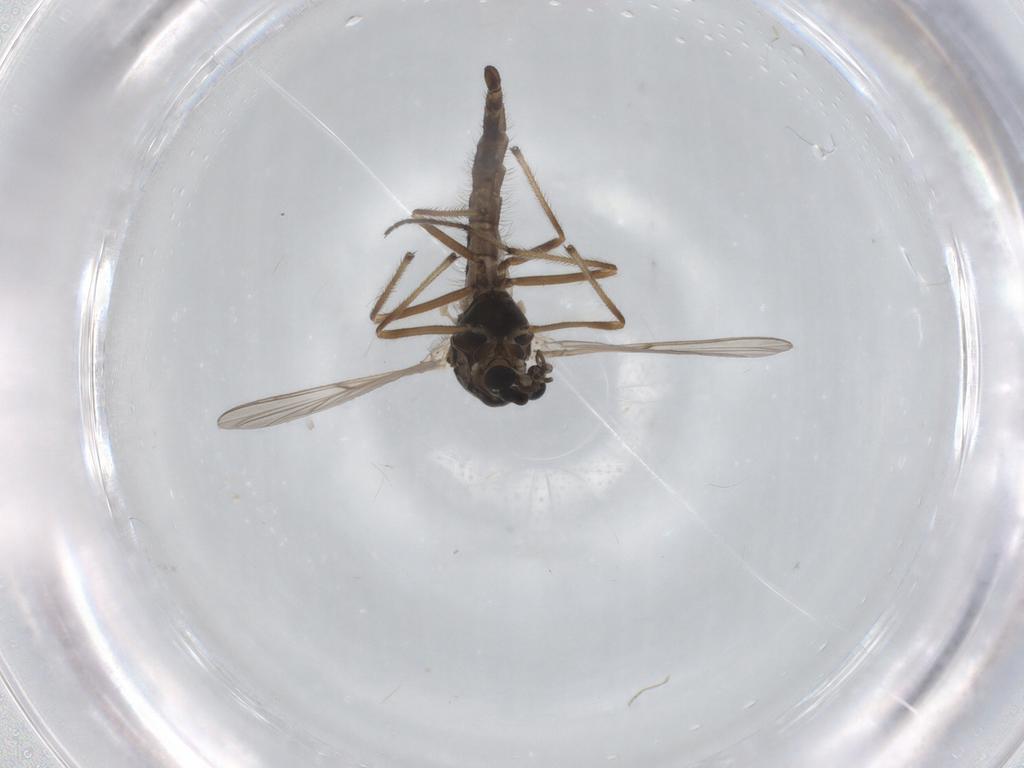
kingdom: Animalia
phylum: Arthropoda
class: Insecta
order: Diptera
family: Chironomidae
